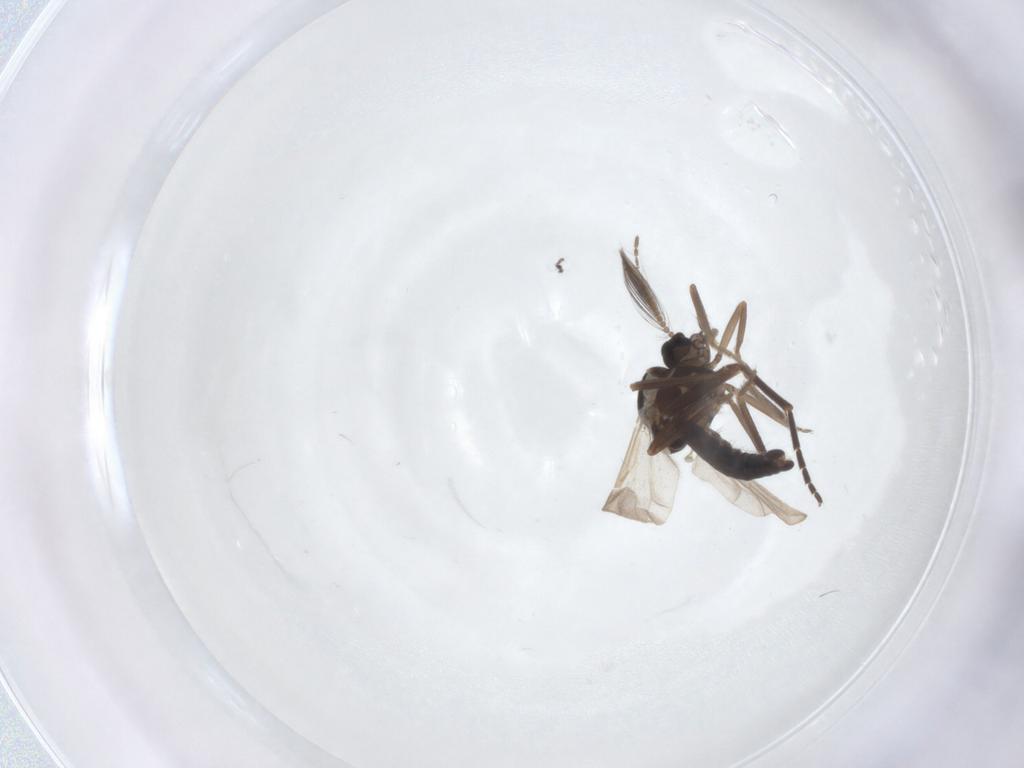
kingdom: Animalia
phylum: Arthropoda
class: Insecta
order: Diptera
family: Ceratopogonidae
